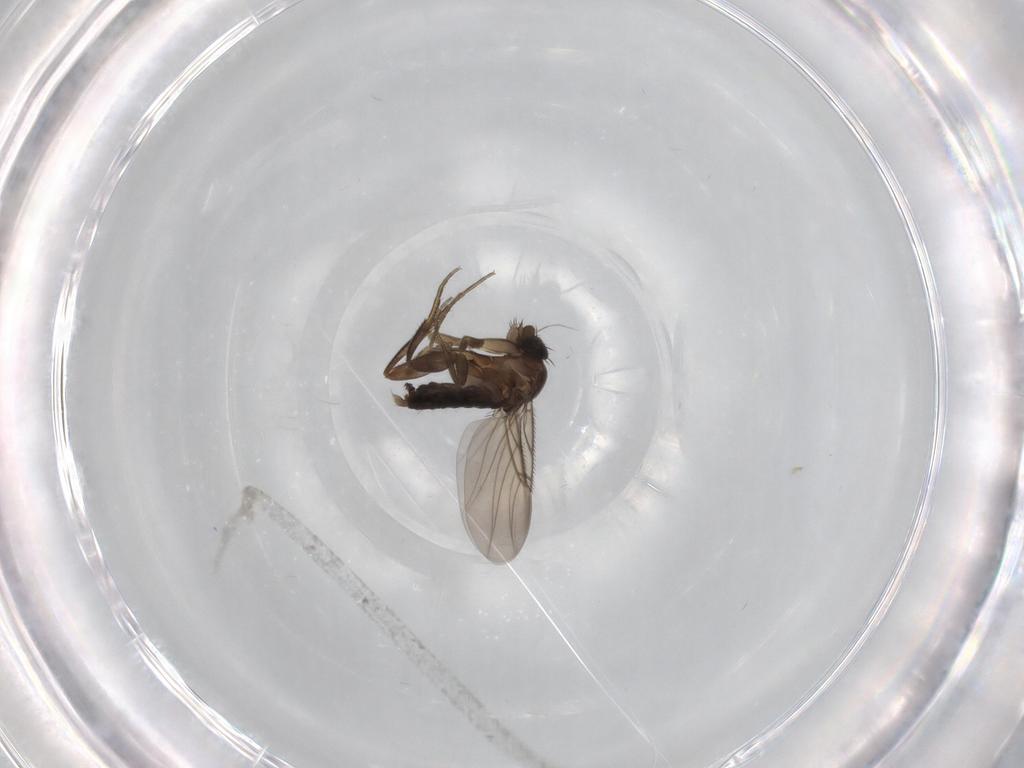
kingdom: Animalia
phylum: Arthropoda
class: Insecta
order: Diptera
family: Phoridae
